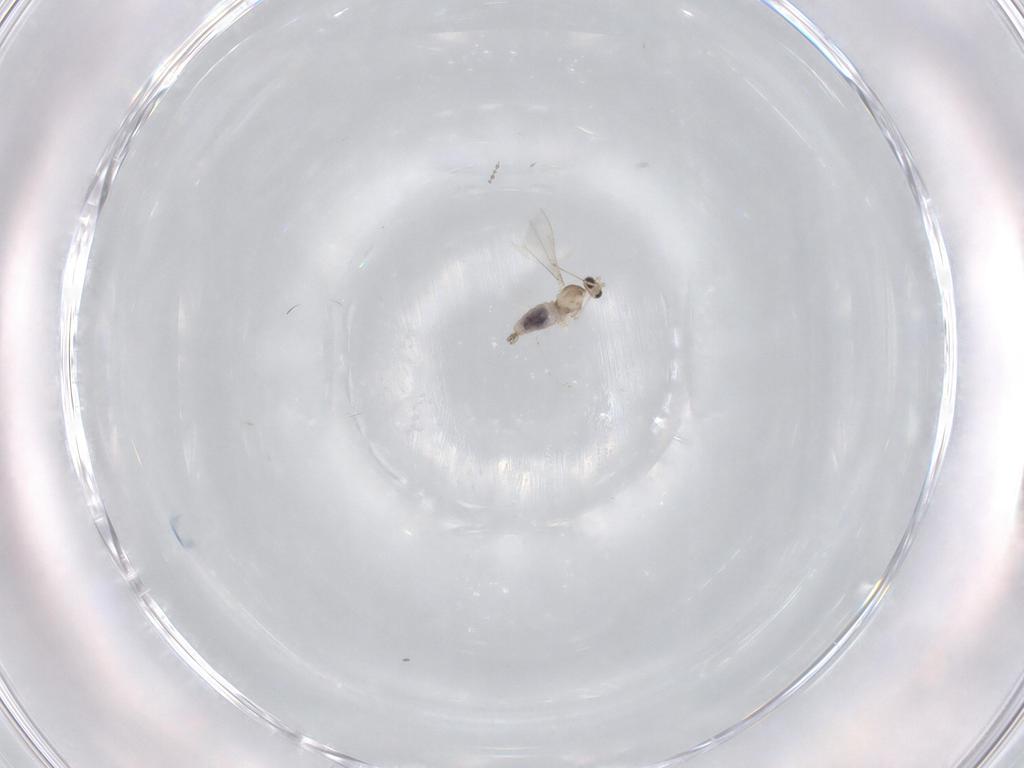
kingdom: Animalia
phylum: Arthropoda
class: Insecta
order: Diptera
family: Cecidomyiidae
